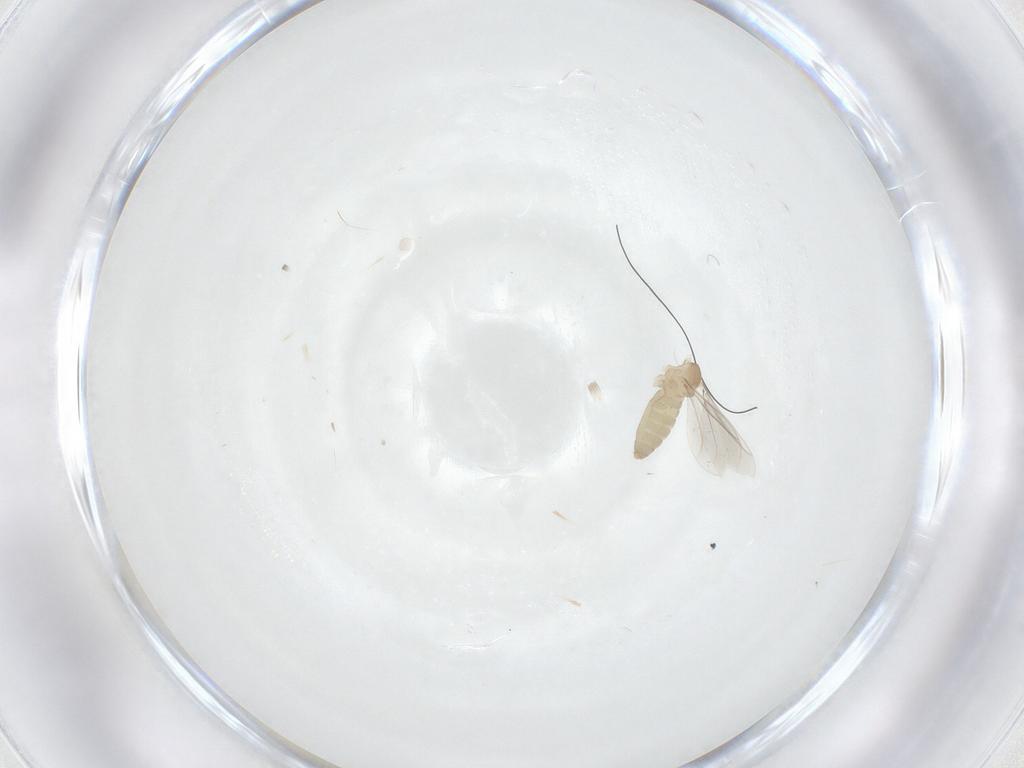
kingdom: Animalia
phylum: Arthropoda
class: Insecta
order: Diptera
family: Cecidomyiidae
